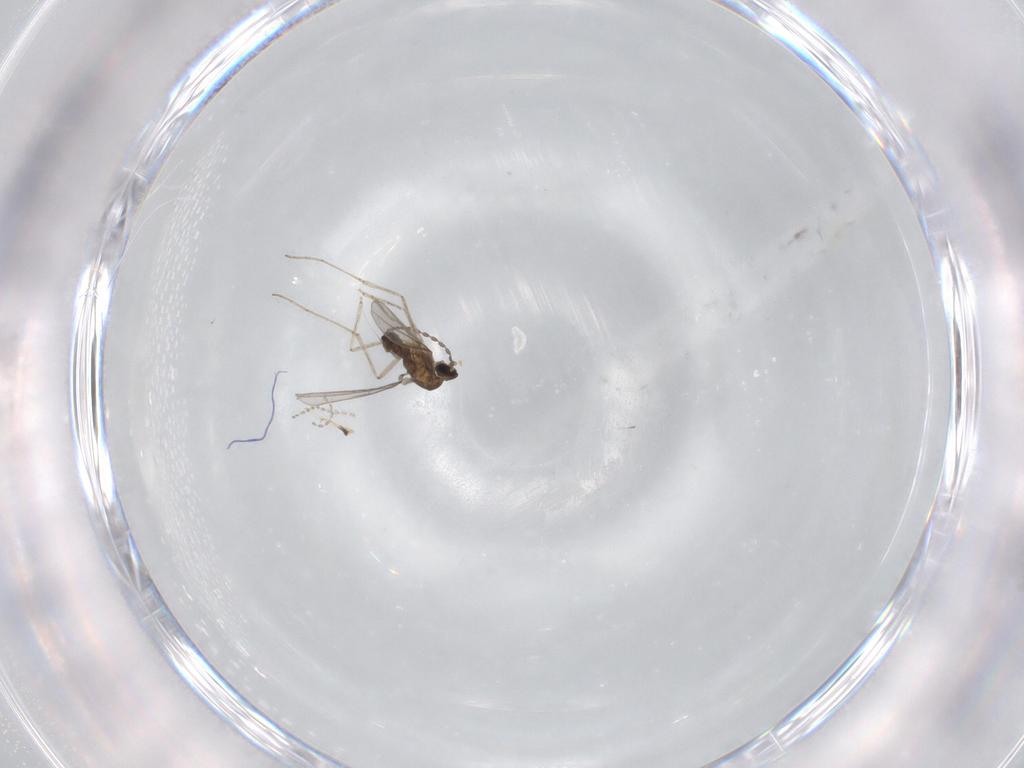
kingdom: Animalia
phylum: Arthropoda
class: Insecta
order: Diptera
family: Cecidomyiidae
